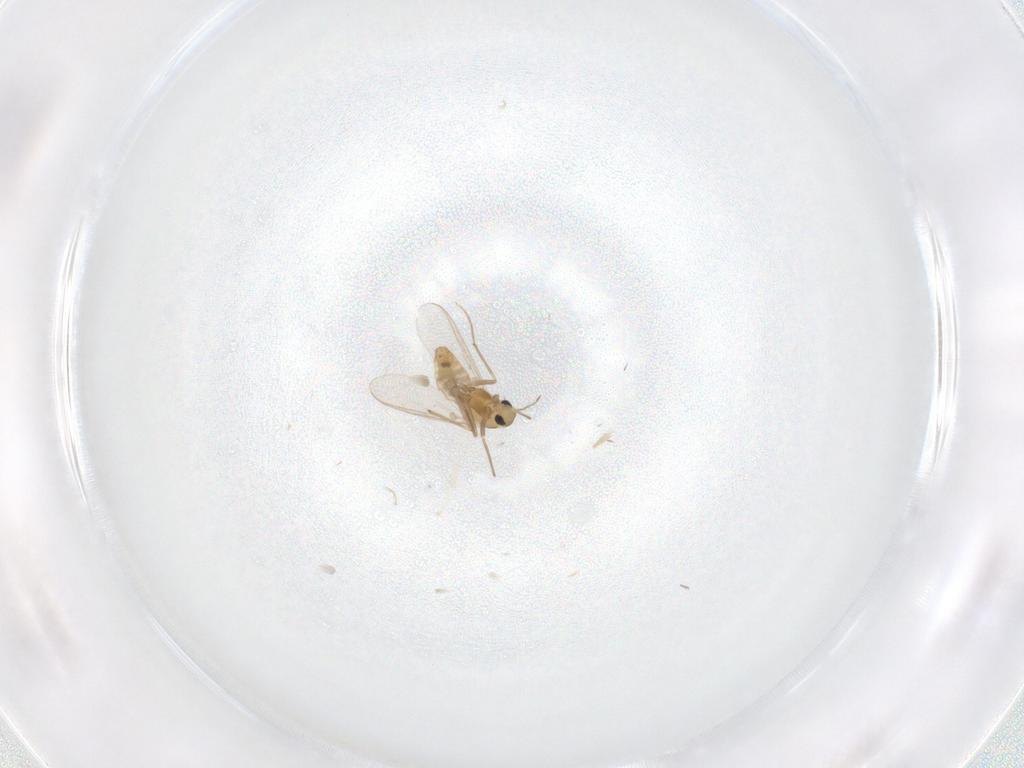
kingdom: Animalia
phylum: Arthropoda
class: Insecta
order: Diptera
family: Chironomidae
